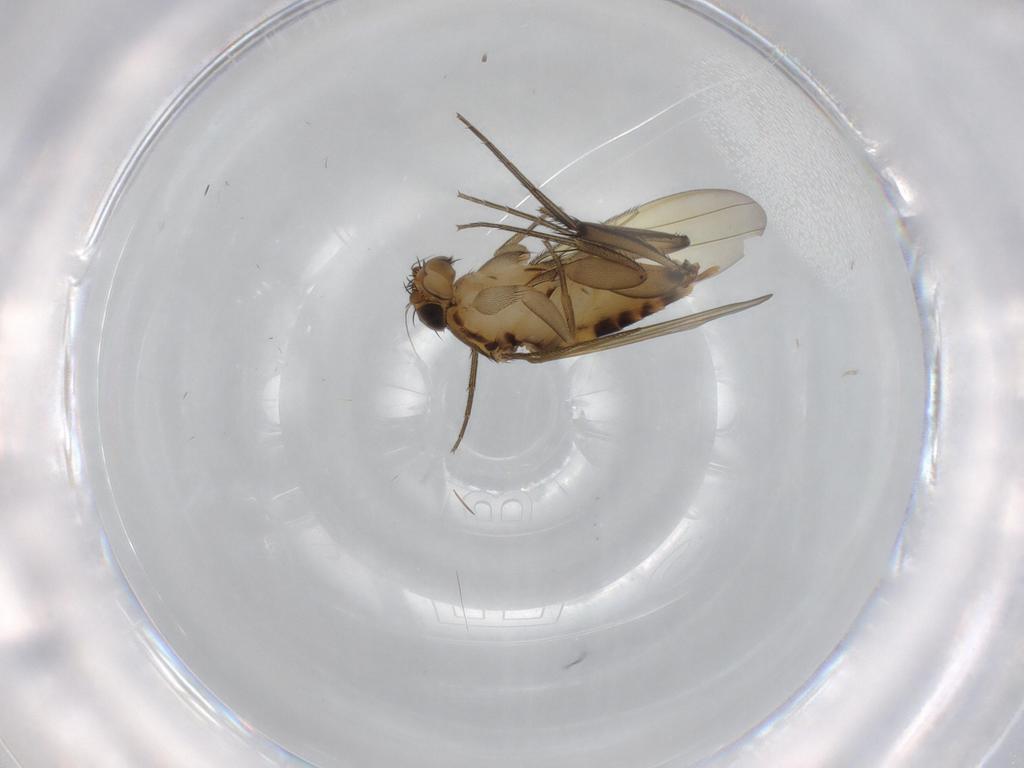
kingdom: Animalia
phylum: Arthropoda
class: Insecta
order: Diptera
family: Phoridae
